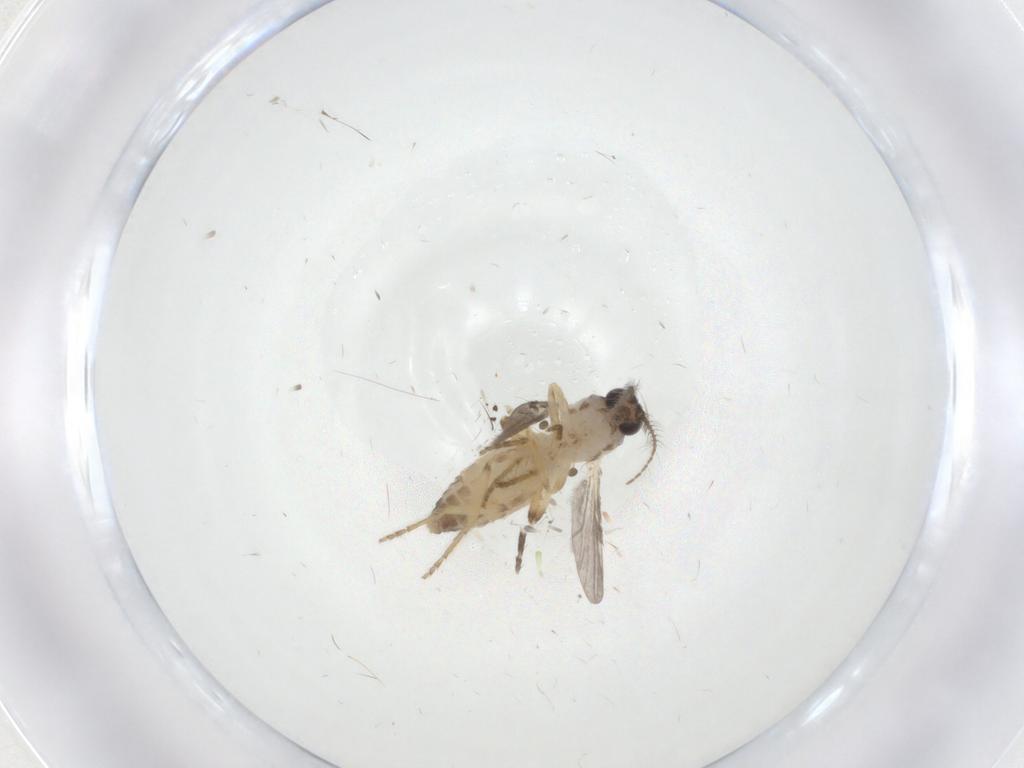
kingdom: Animalia
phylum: Arthropoda
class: Insecta
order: Diptera
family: Ceratopogonidae
